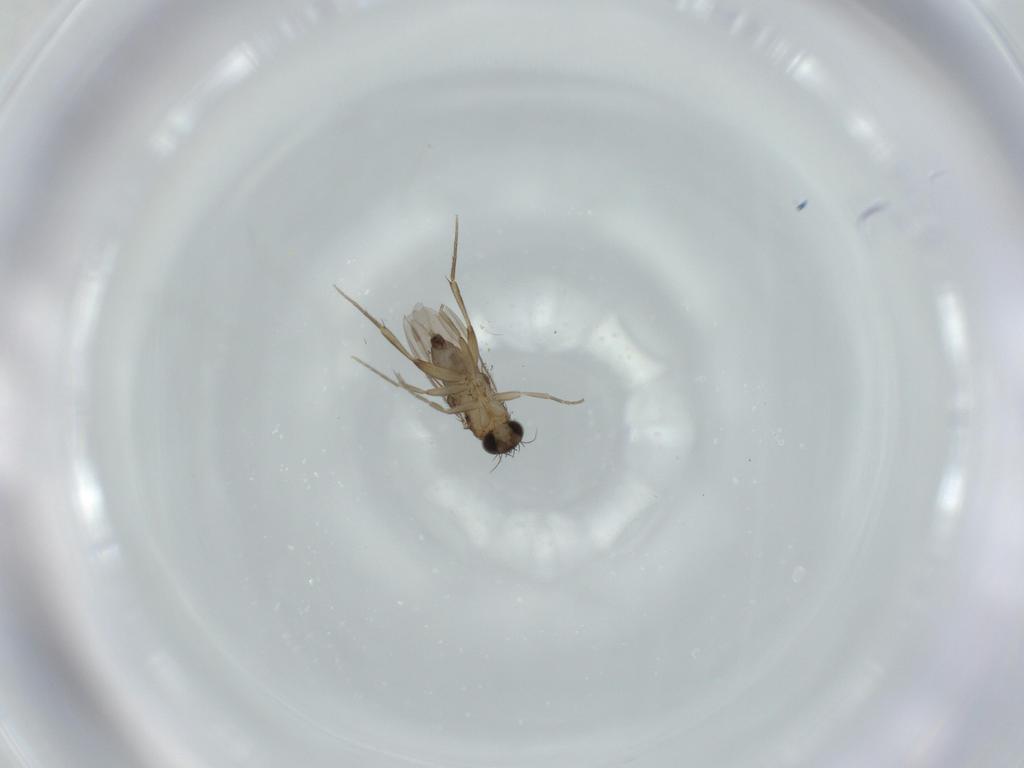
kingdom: Animalia
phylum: Arthropoda
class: Insecta
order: Diptera
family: Phoridae
